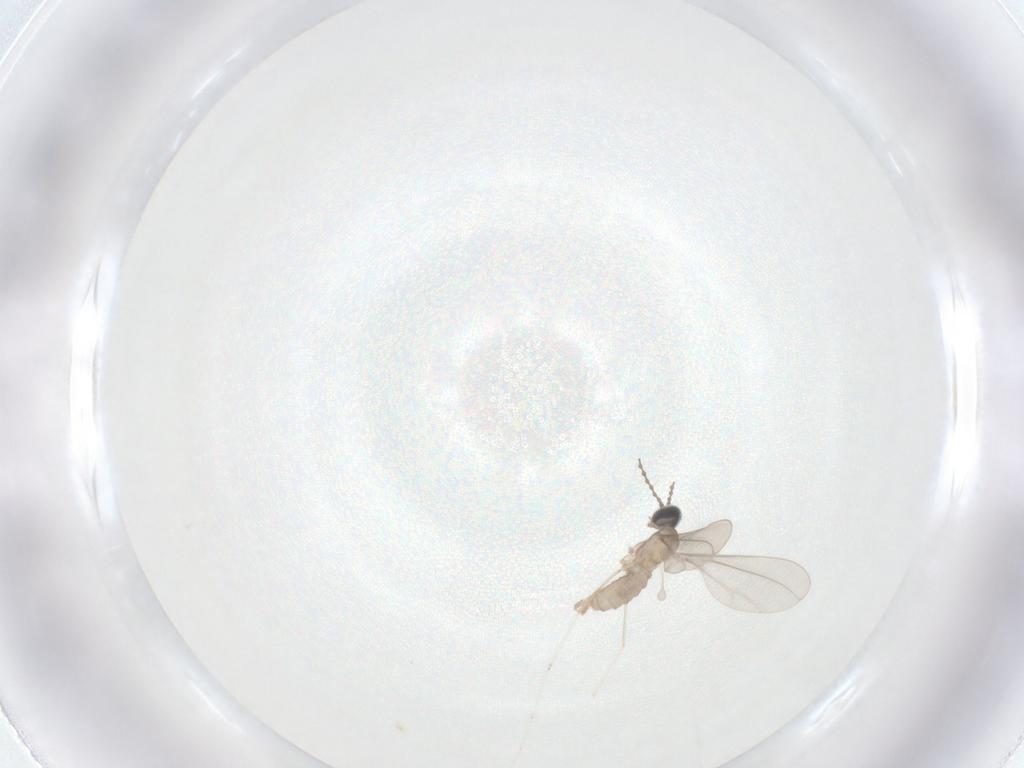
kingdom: Animalia
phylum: Arthropoda
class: Insecta
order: Diptera
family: Cecidomyiidae
